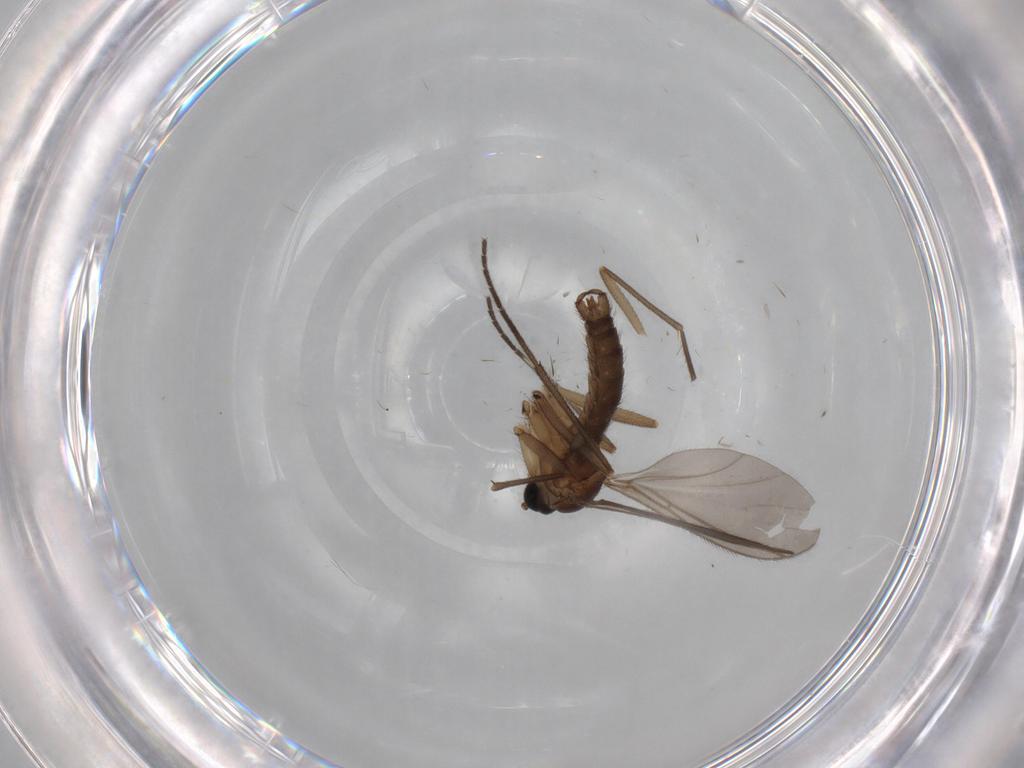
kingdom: Animalia
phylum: Arthropoda
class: Insecta
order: Diptera
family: Sciaridae
